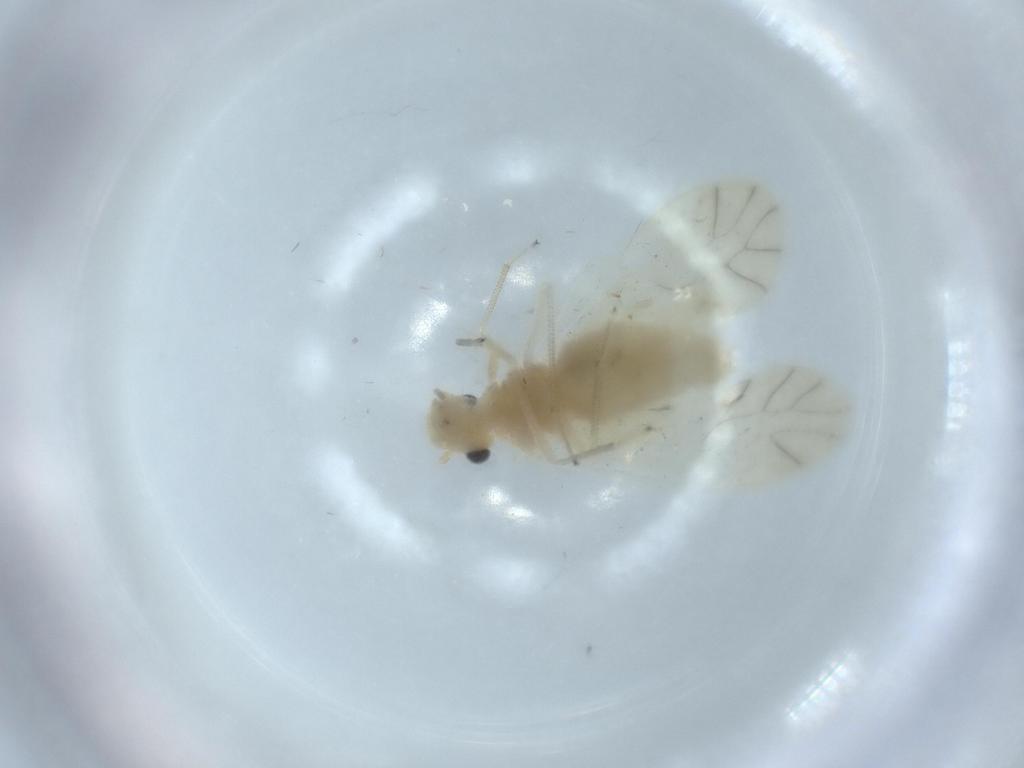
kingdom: Animalia
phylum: Arthropoda
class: Insecta
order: Psocodea
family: Caeciliusidae
